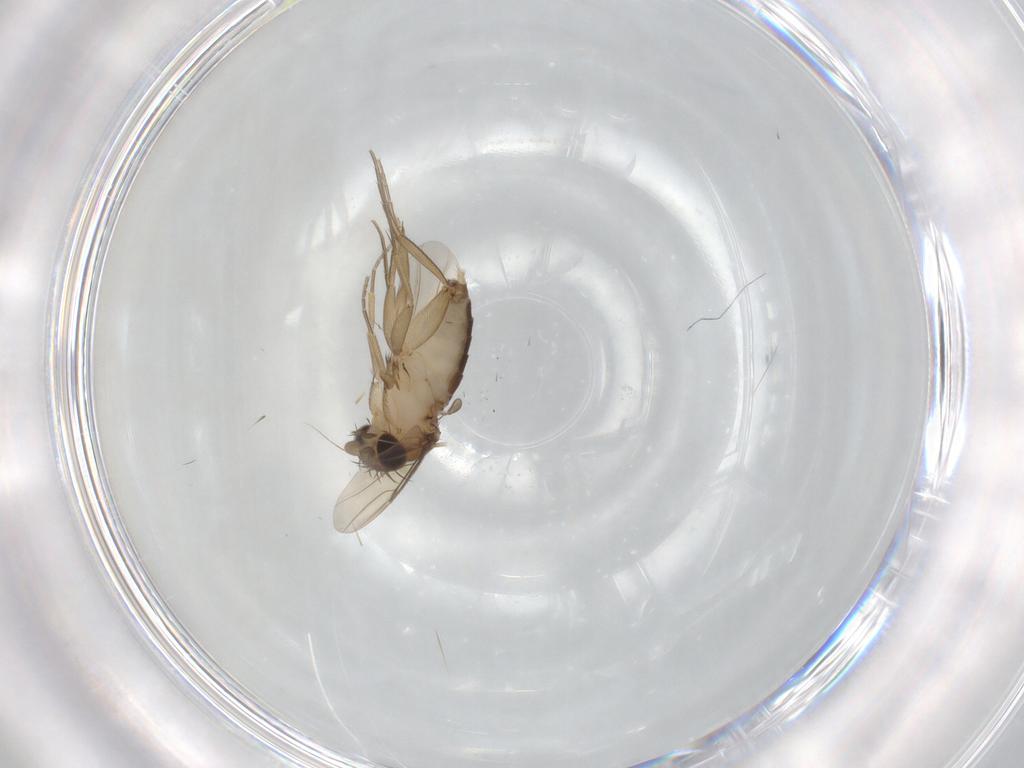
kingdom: Animalia
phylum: Arthropoda
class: Insecta
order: Diptera
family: Phoridae
